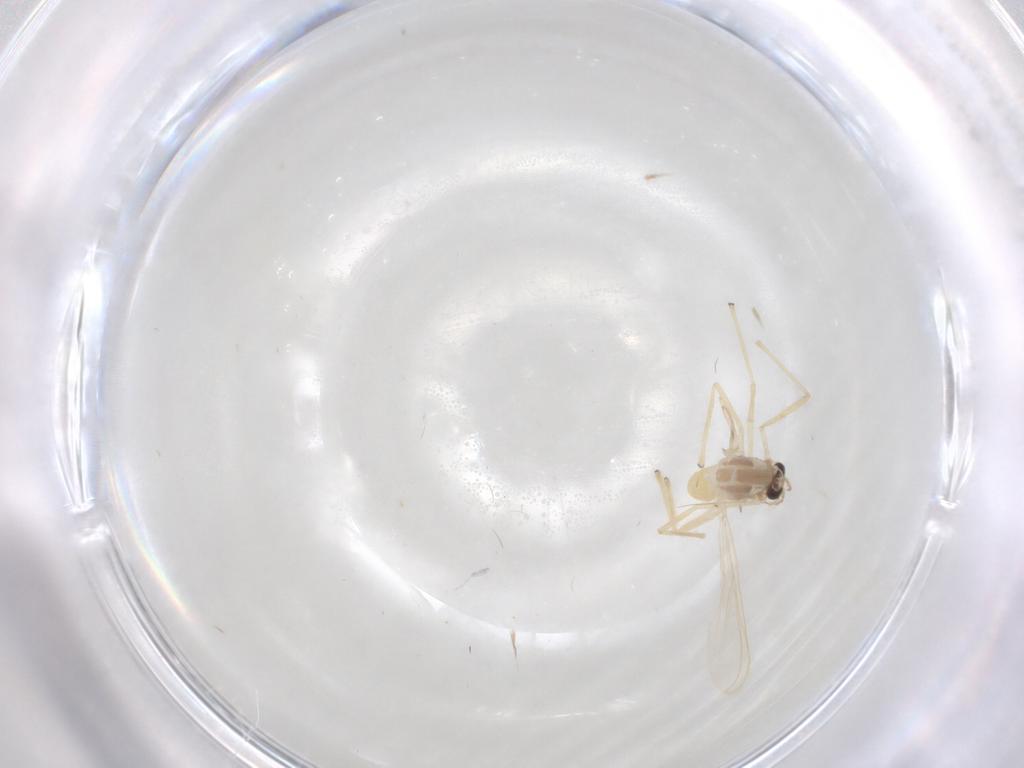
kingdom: Animalia
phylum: Arthropoda
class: Insecta
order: Diptera
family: Chironomidae
